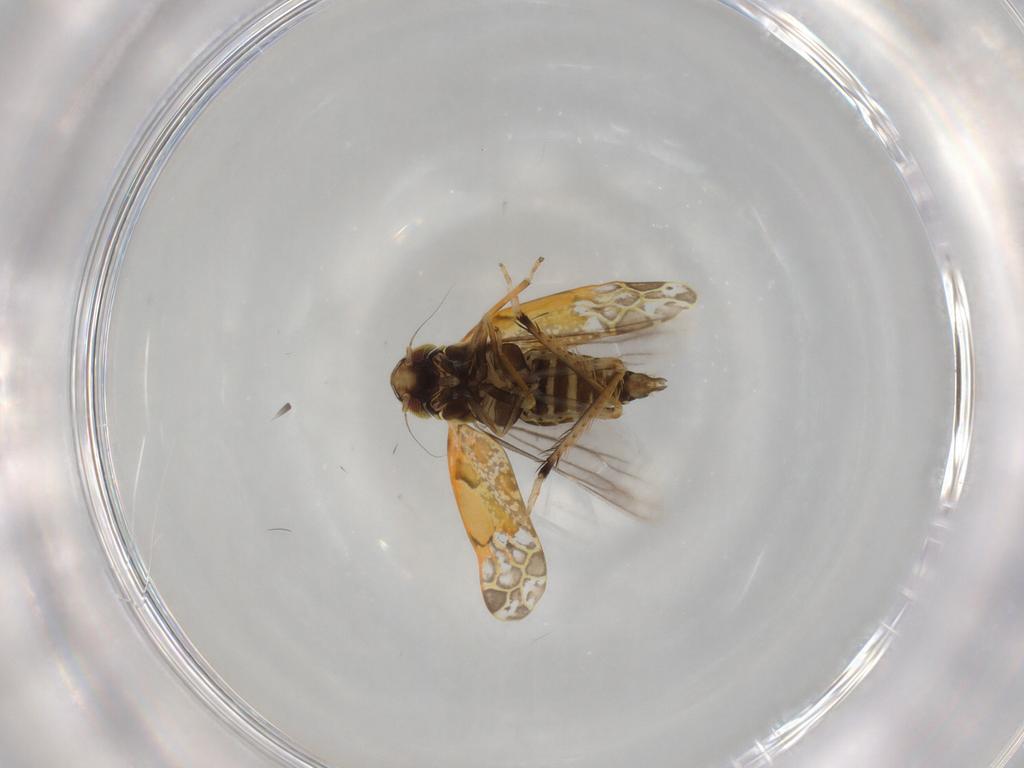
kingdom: Animalia
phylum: Arthropoda
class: Insecta
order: Hemiptera
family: Cicadellidae
